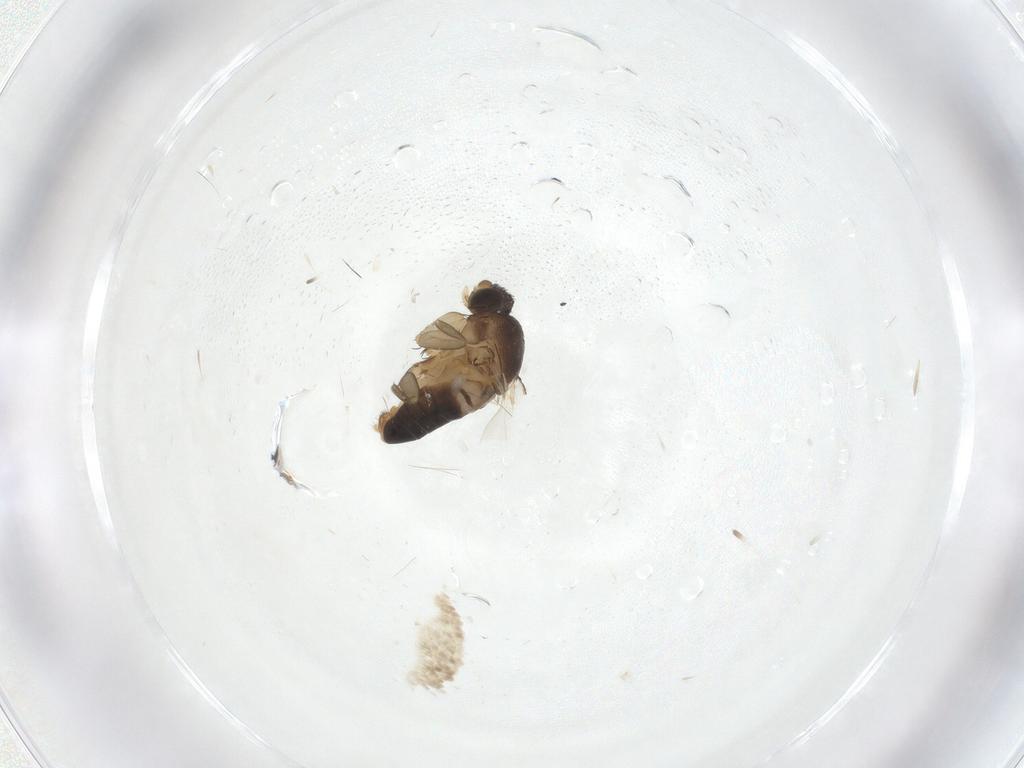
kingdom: Animalia
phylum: Arthropoda
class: Insecta
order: Diptera
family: Phoridae
